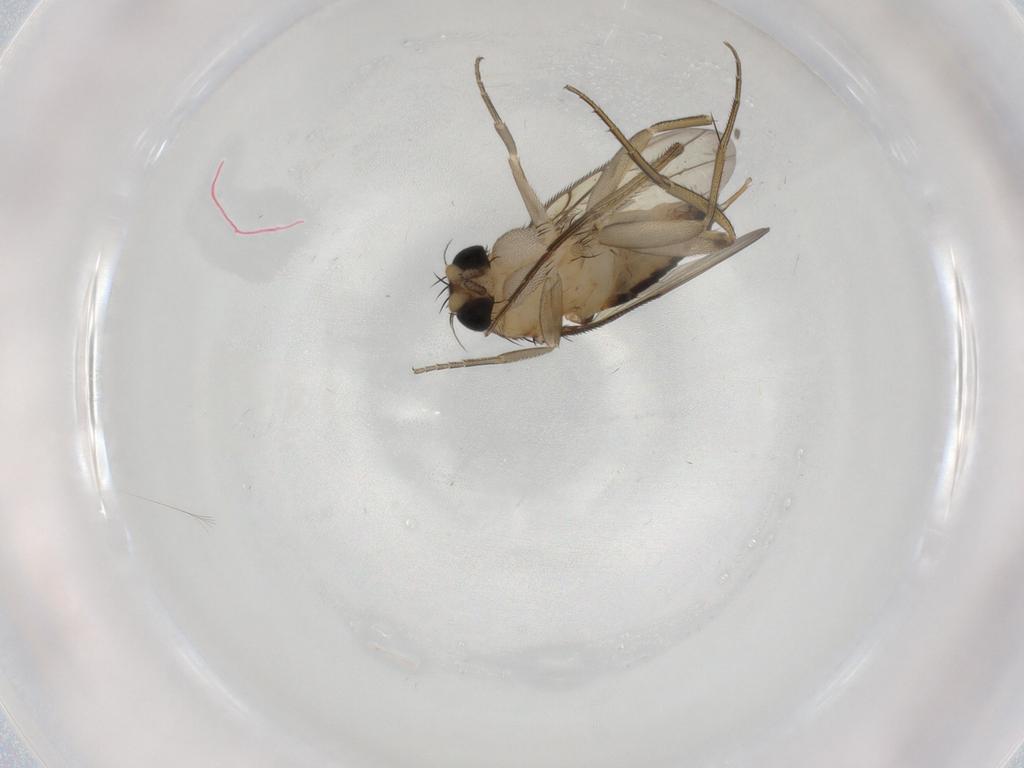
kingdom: Animalia
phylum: Arthropoda
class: Insecta
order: Diptera
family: Phoridae
